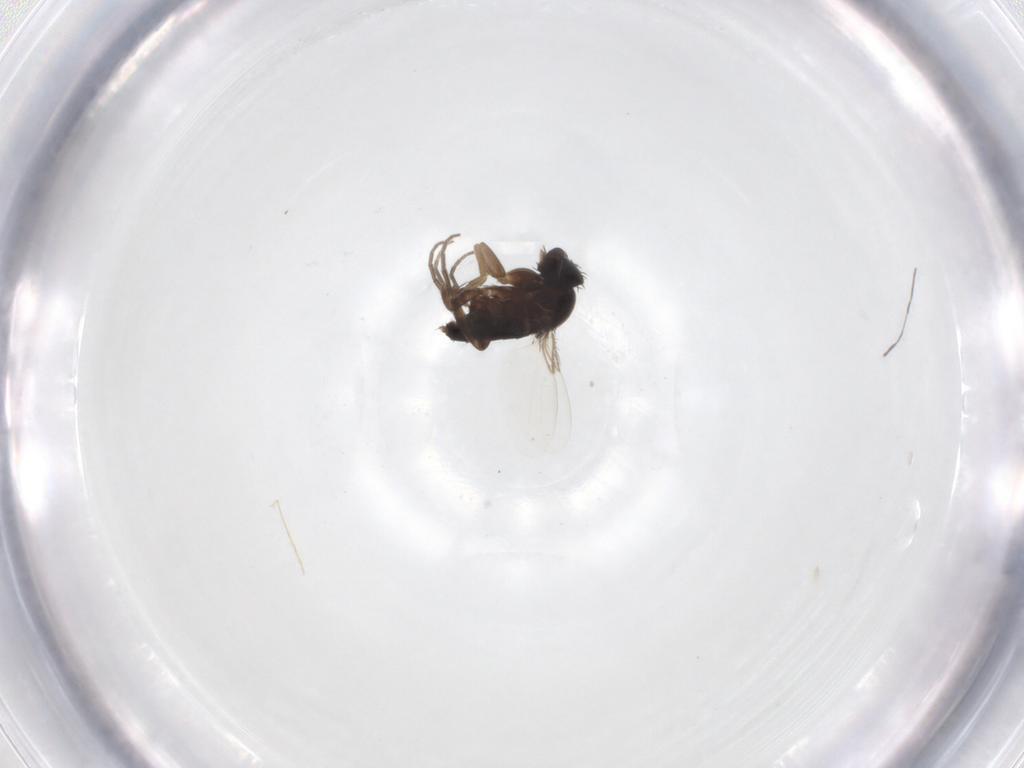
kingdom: Animalia
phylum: Arthropoda
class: Insecta
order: Diptera
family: Phoridae
